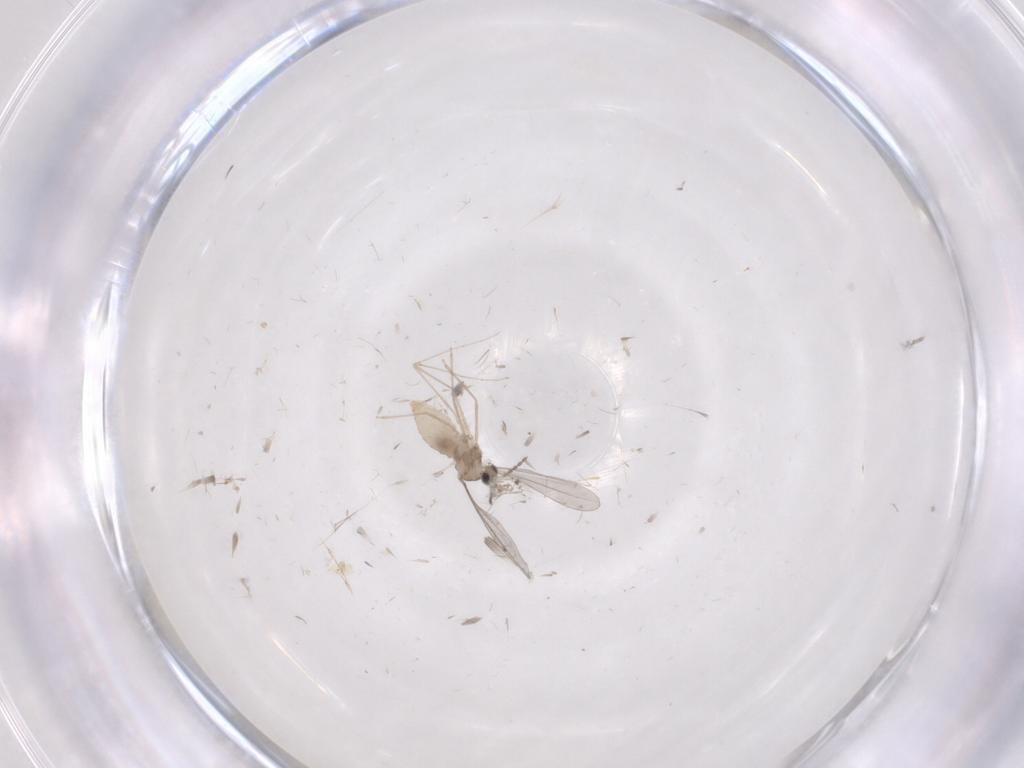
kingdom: Animalia
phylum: Arthropoda
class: Insecta
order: Diptera
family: Cecidomyiidae
